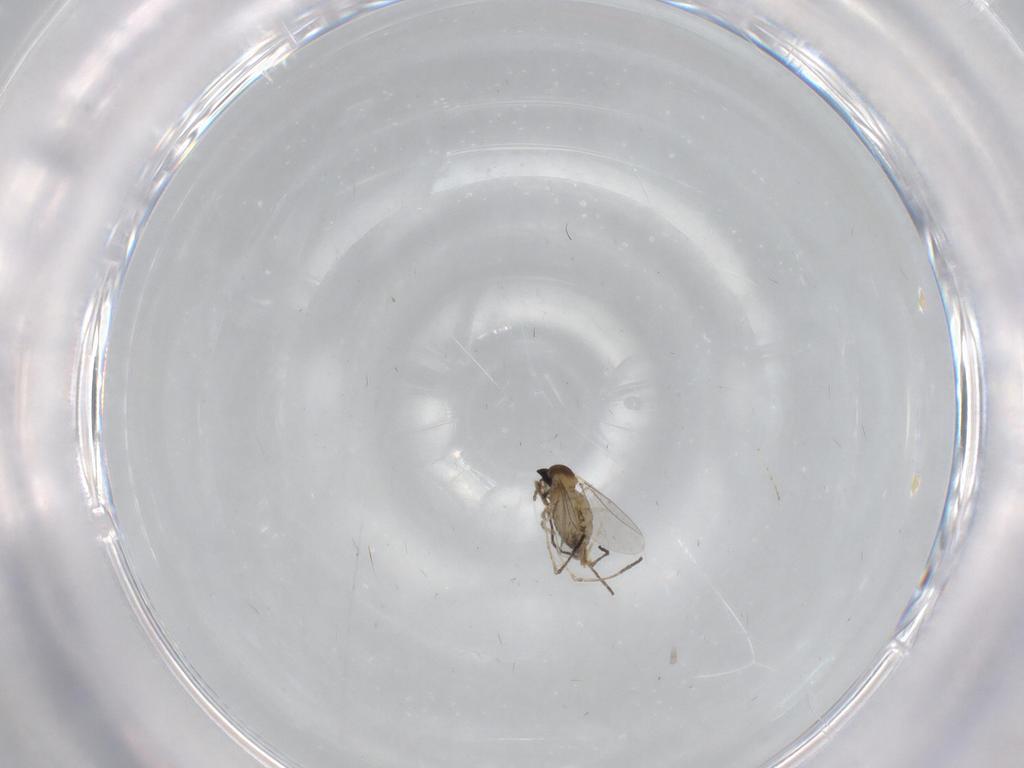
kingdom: Animalia
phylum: Arthropoda
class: Insecta
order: Diptera
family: Cecidomyiidae
